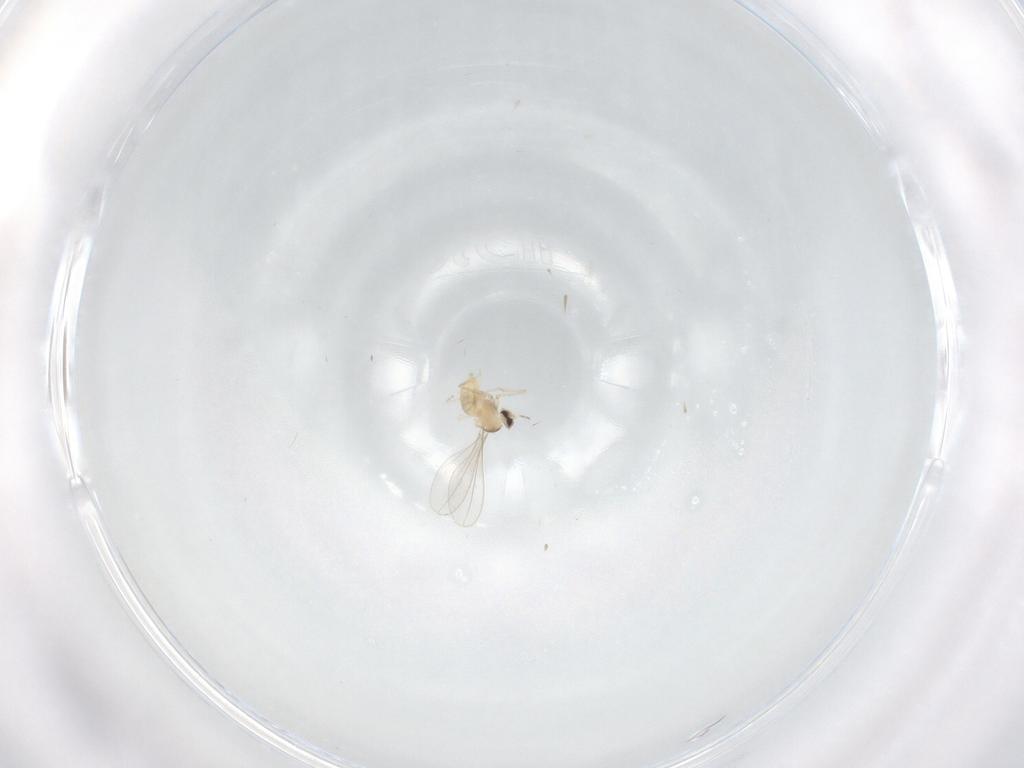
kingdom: Animalia
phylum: Arthropoda
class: Insecta
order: Diptera
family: Cecidomyiidae
